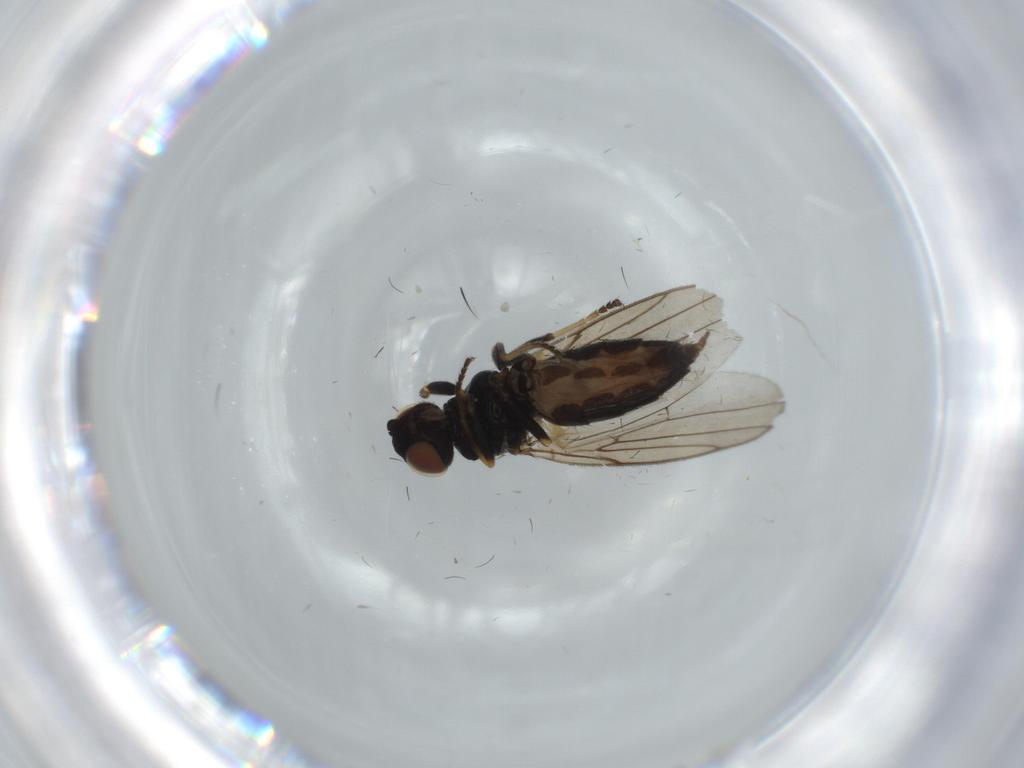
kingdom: Animalia
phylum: Arthropoda
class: Insecta
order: Diptera
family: Chloropidae
